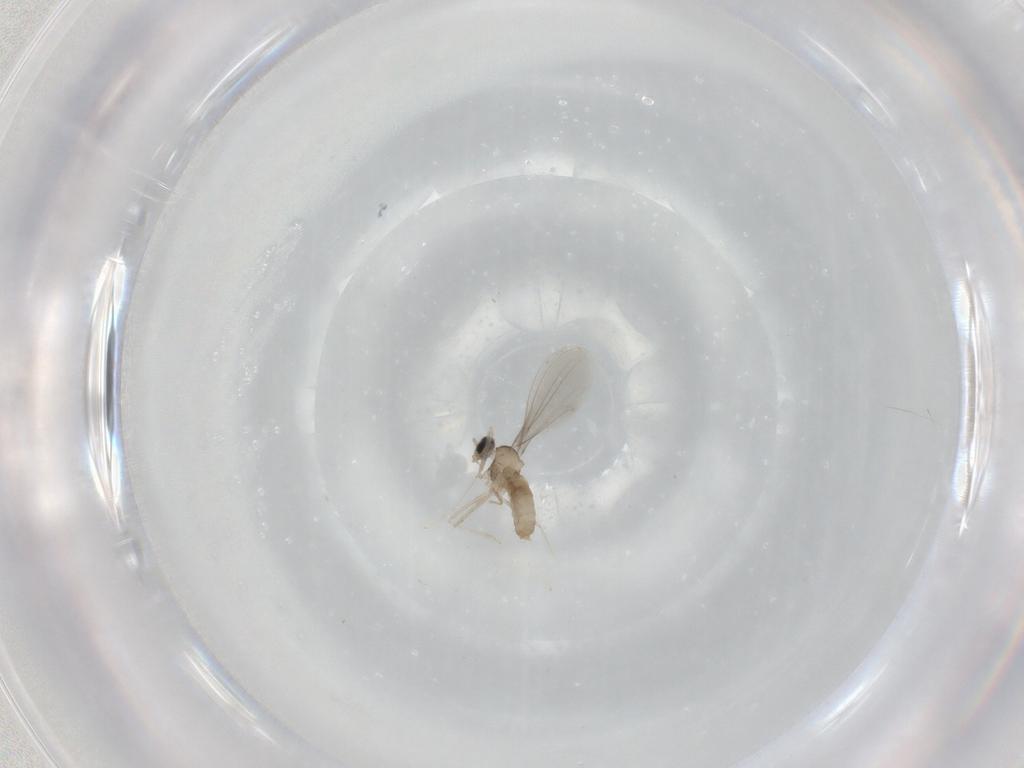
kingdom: Animalia
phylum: Arthropoda
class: Insecta
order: Diptera
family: Cecidomyiidae
